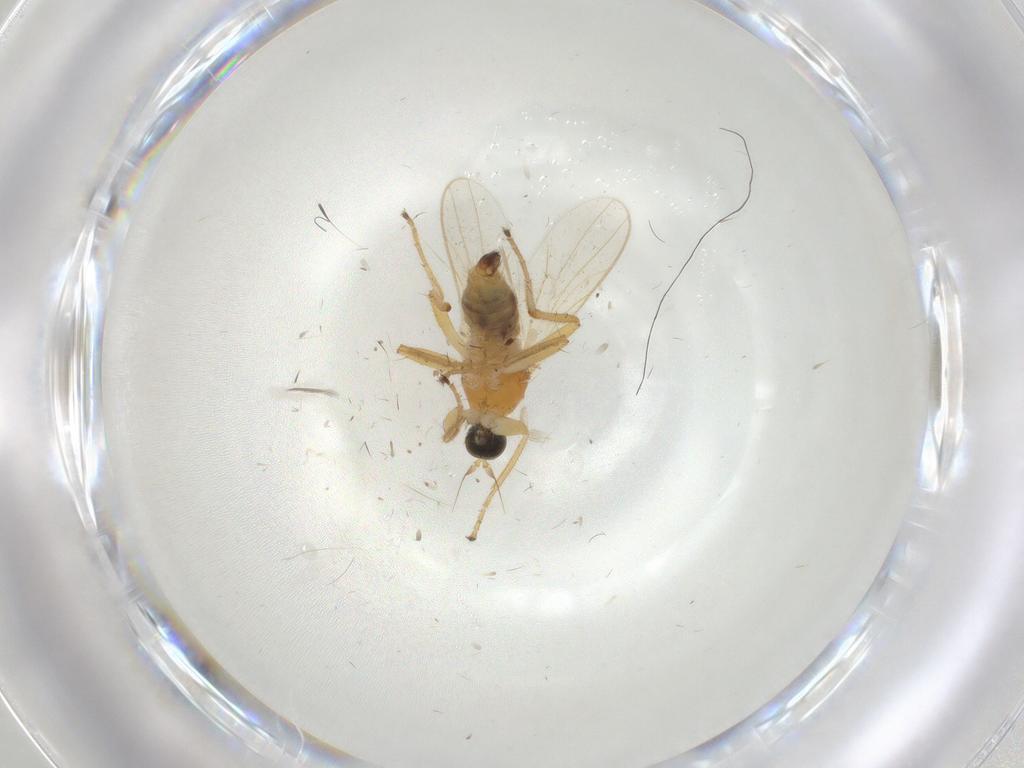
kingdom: Animalia
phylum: Arthropoda
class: Insecta
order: Diptera
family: Hybotidae
